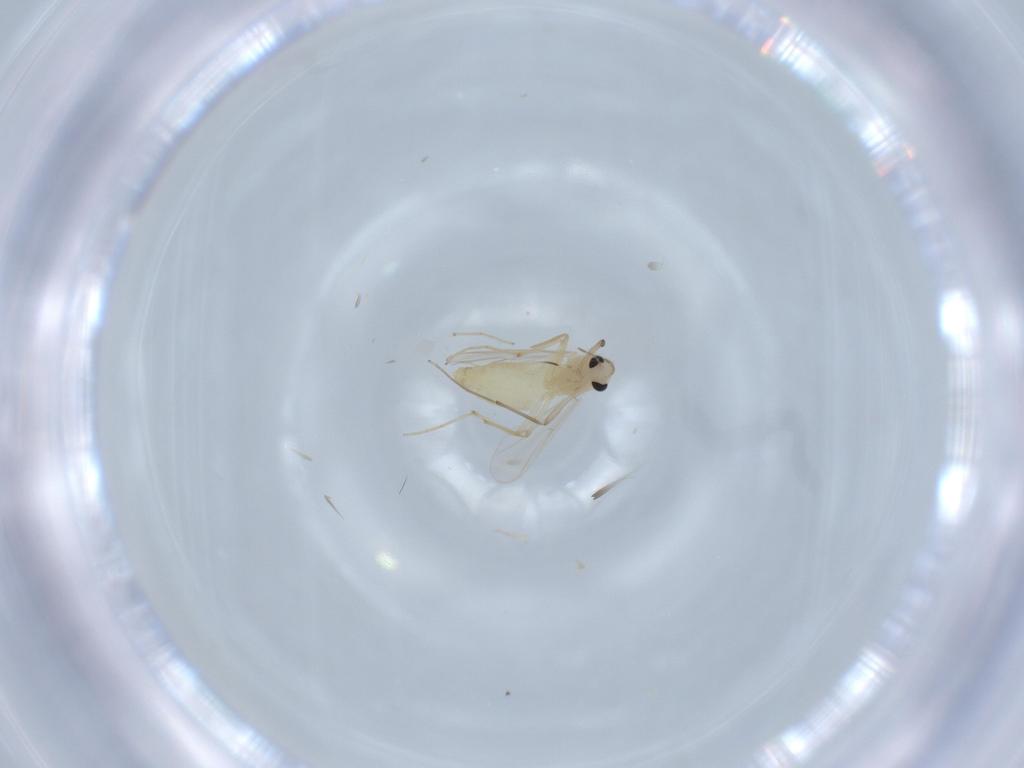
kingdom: Animalia
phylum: Arthropoda
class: Insecta
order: Diptera
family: Chironomidae
